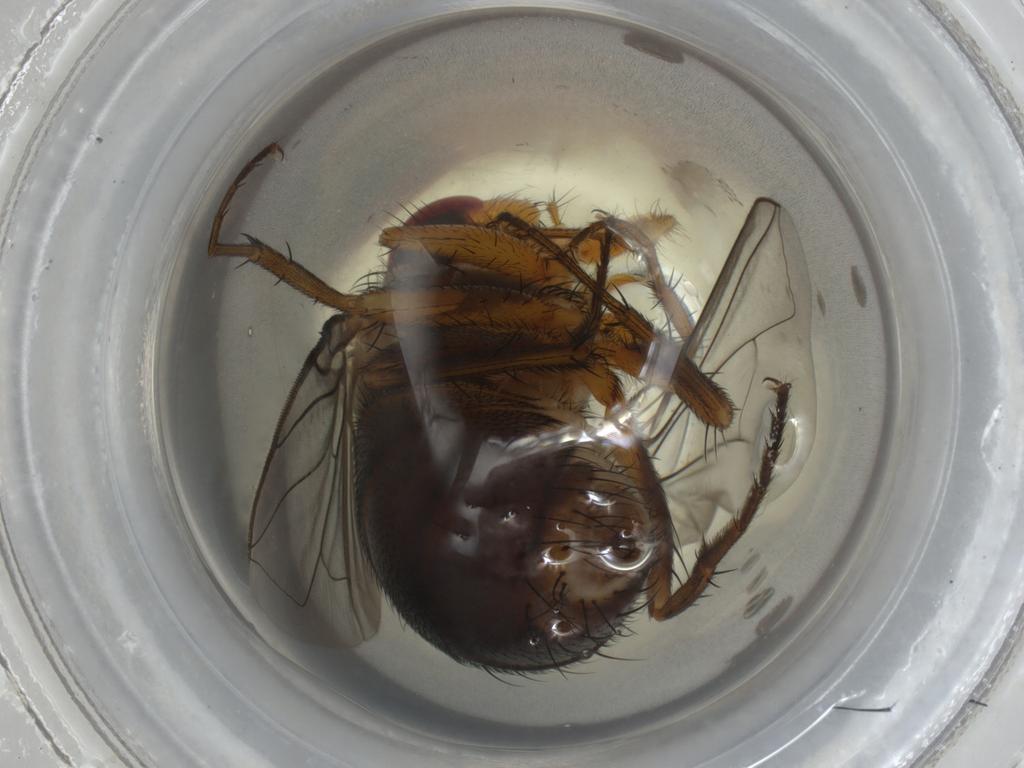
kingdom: Animalia
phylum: Arthropoda
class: Insecta
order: Diptera
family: Calliphoridae
